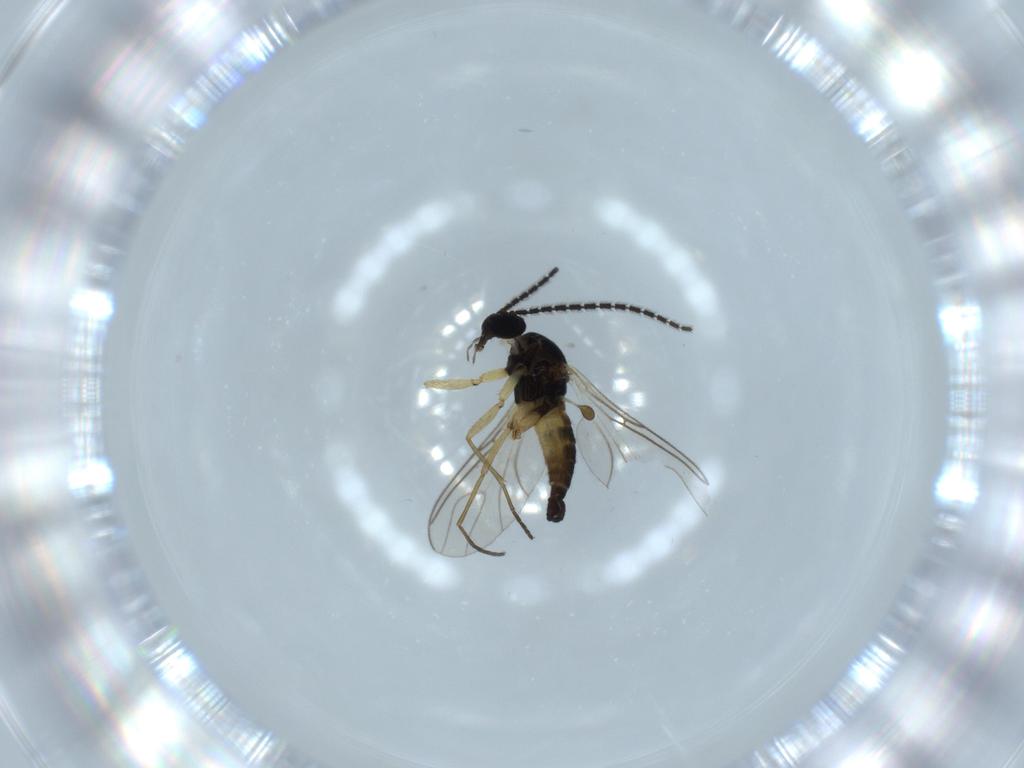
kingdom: Animalia
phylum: Arthropoda
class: Insecta
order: Diptera
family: Sciaridae
